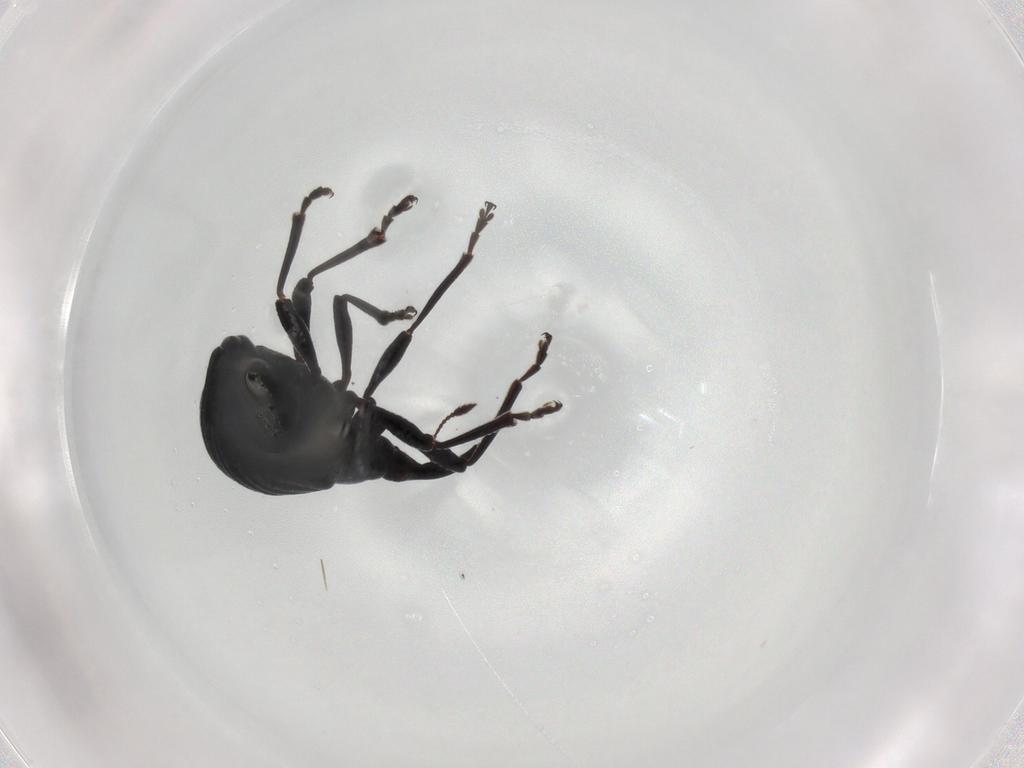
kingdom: Animalia
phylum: Arthropoda
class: Insecta
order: Coleoptera
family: Brentidae
